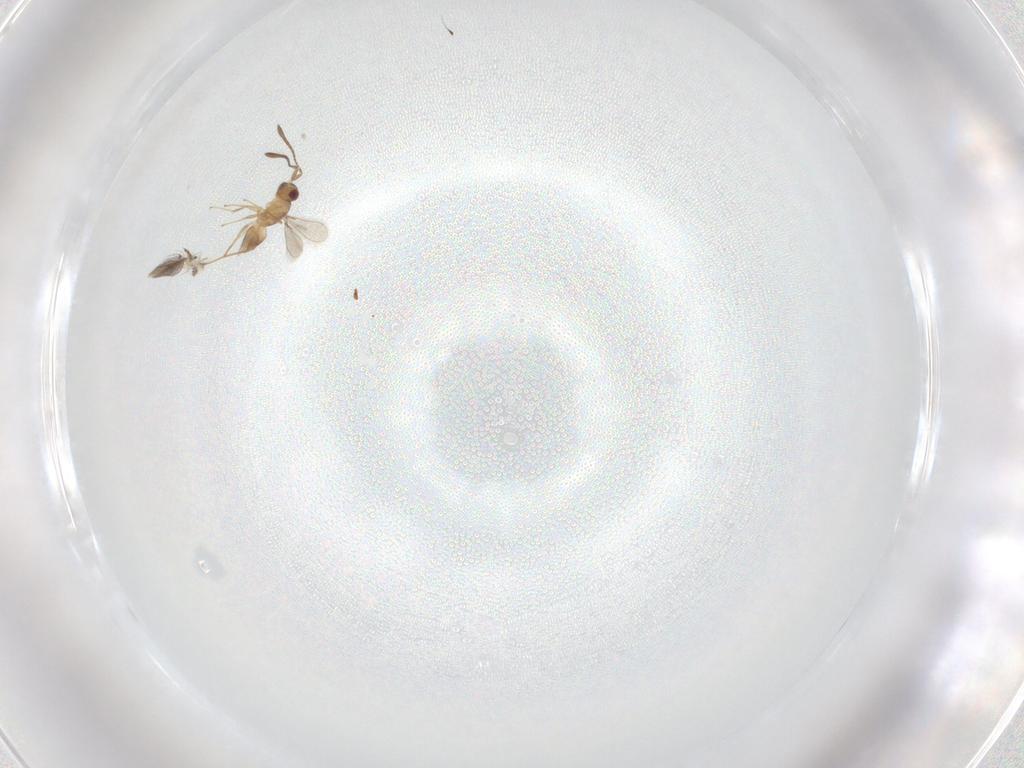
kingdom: Animalia
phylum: Arthropoda
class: Insecta
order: Hymenoptera
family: Mymaridae
